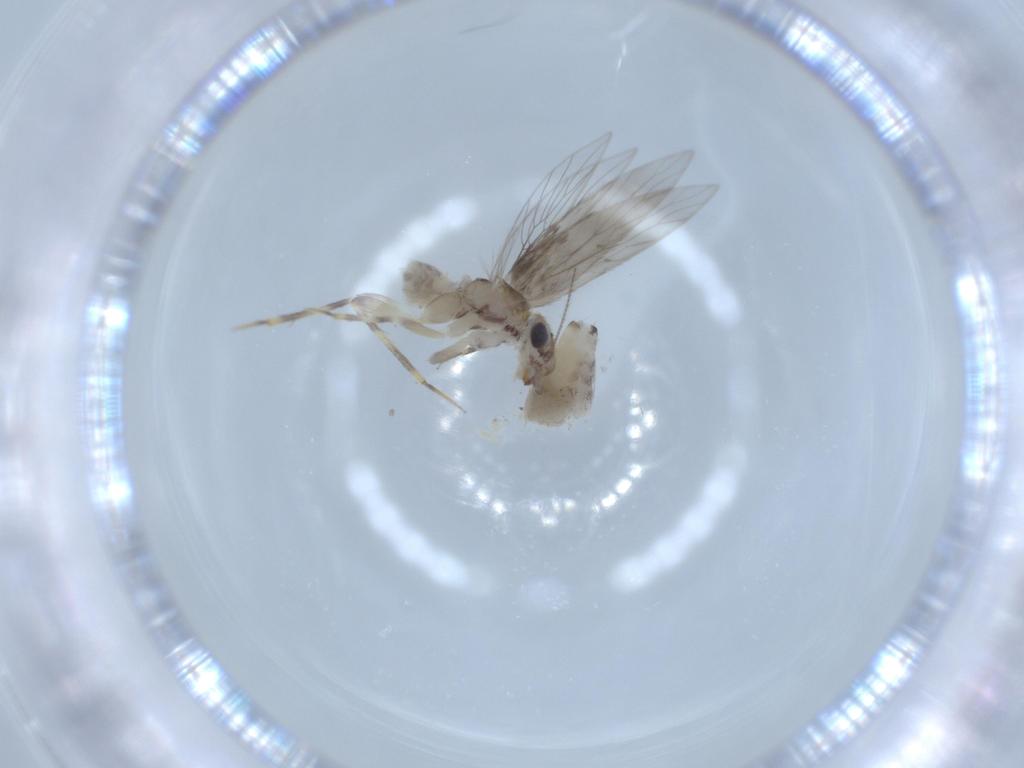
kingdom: Animalia
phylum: Arthropoda
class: Insecta
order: Psocodea
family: Lepidopsocidae
